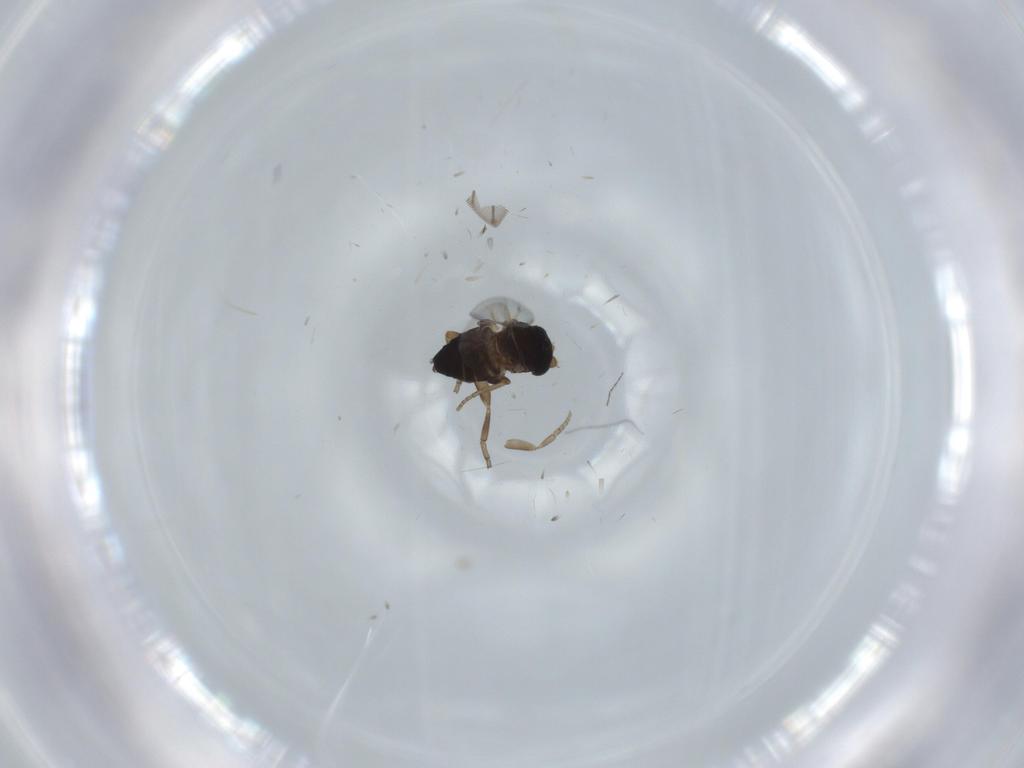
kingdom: Animalia
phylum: Arthropoda
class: Insecta
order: Diptera
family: Phoridae
